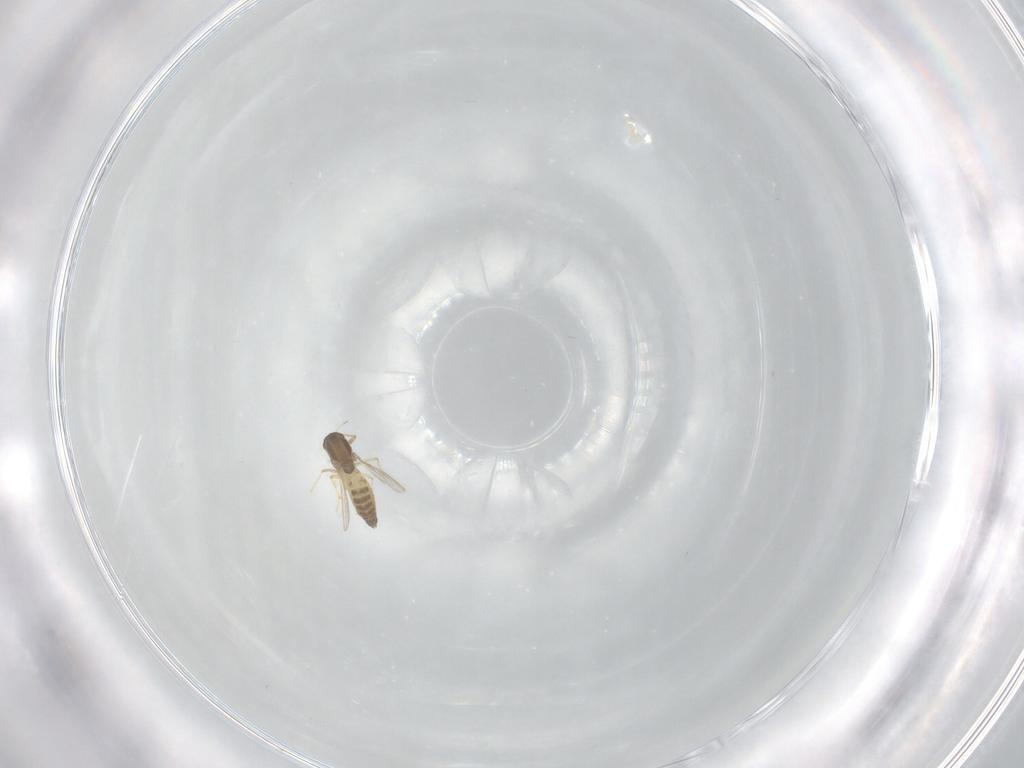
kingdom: Animalia
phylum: Arthropoda
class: Insecta
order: Diptera
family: Chironomidae
